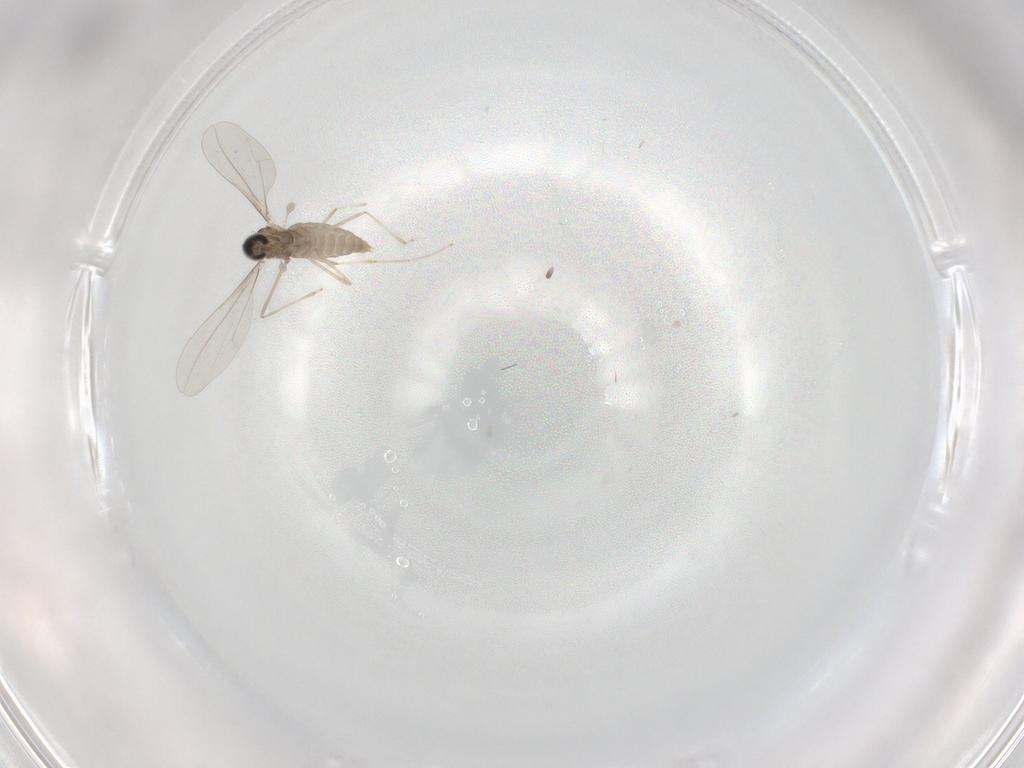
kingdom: Animalia
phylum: Arthropoda
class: Insecta
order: Diptera
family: Cecidomyiidae
